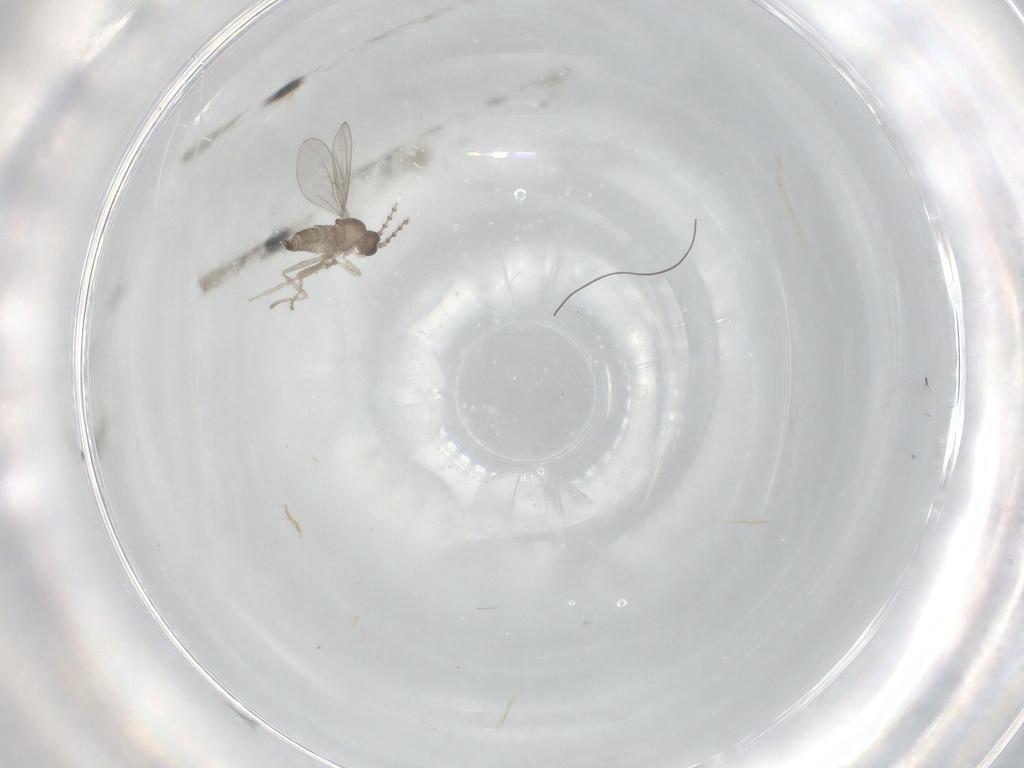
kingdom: Animalia
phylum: Arthropoda
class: Insecta
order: Diptera
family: Cecidomyiidae
